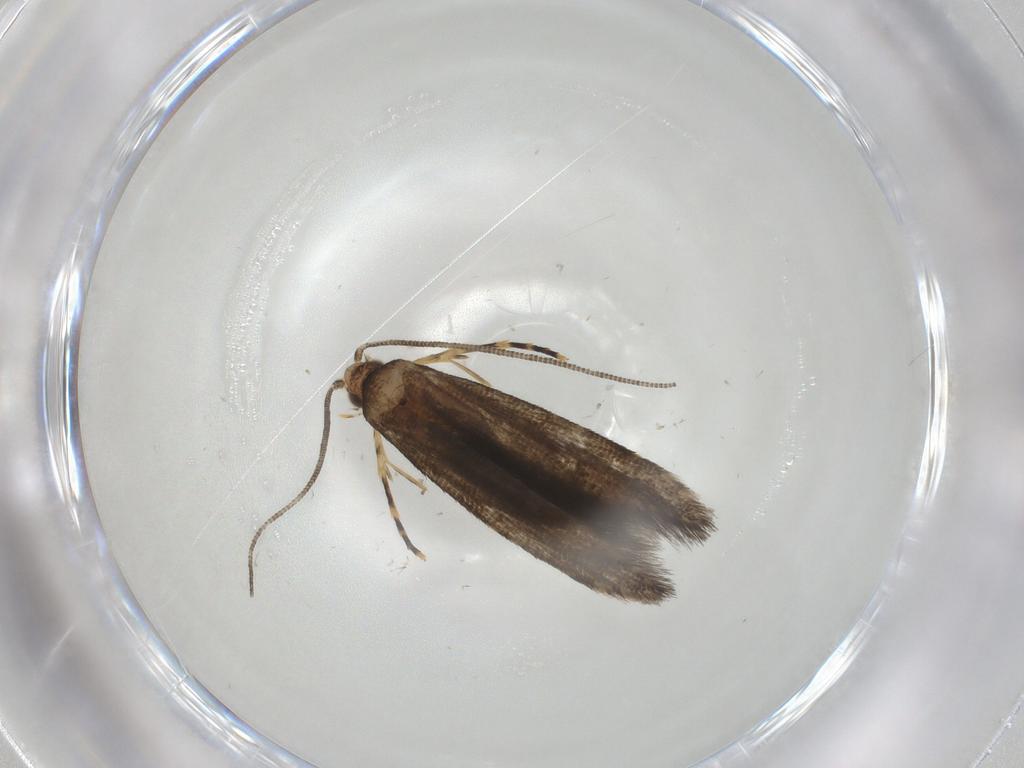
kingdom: Animalia
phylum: Arthropoda
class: Insecta
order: Lepidoptera
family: Tineidae
